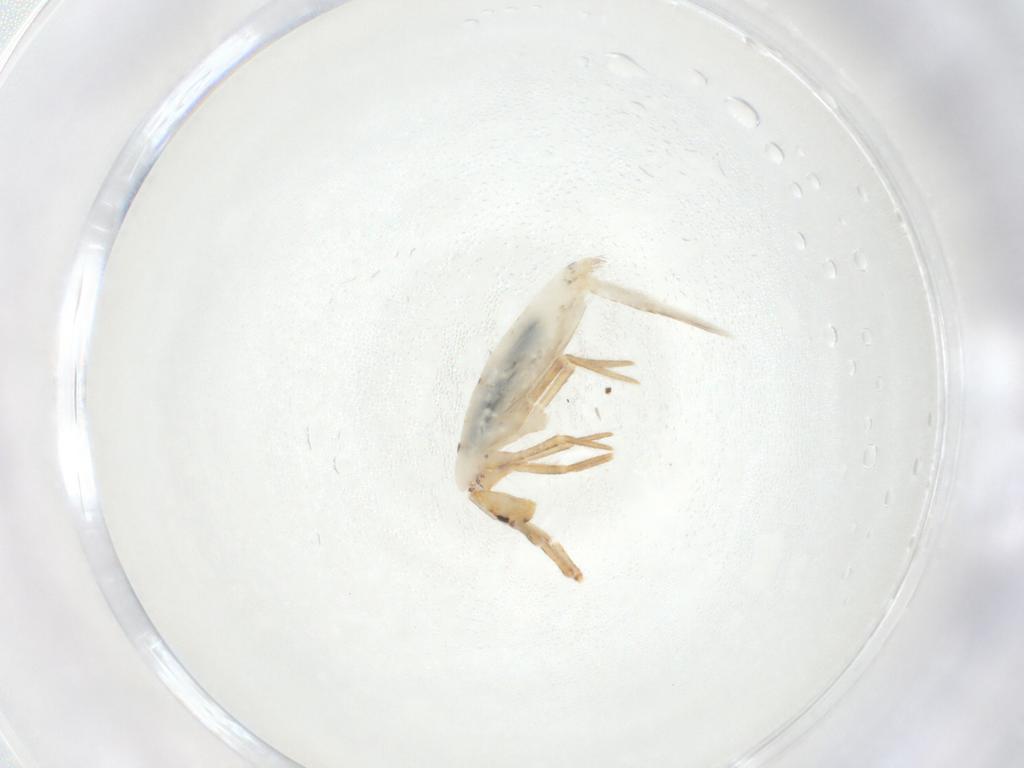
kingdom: Animalia
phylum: Arthropoda
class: Collembola
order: Entomobryomorpha
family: Entomobryidae
